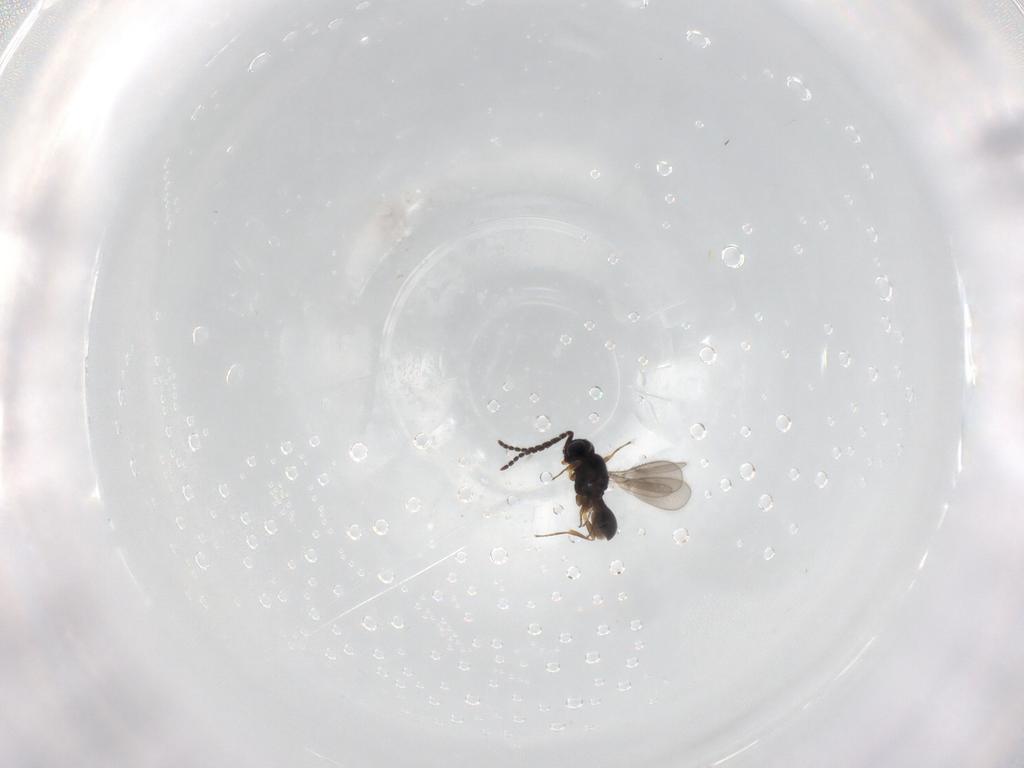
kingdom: Animalia
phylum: Arthropoda
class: Insecta
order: Hymenoptera
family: Scelionidae
